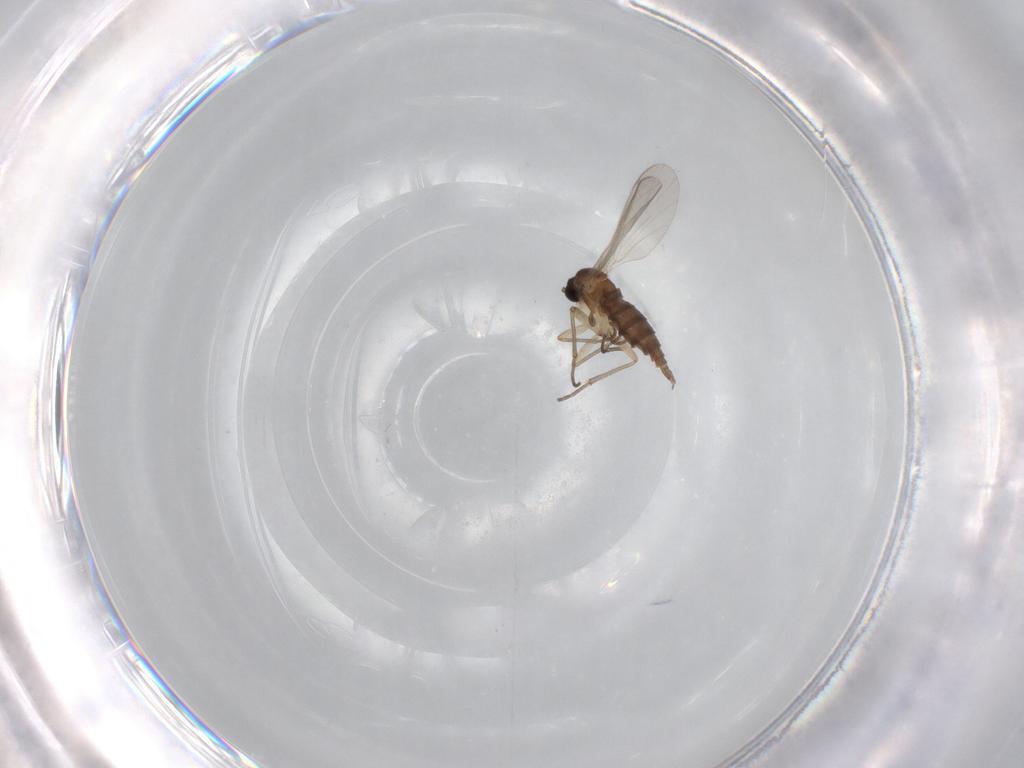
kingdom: Animalia
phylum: Arthropoda
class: Insecta
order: Diptera
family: Sciaridae
